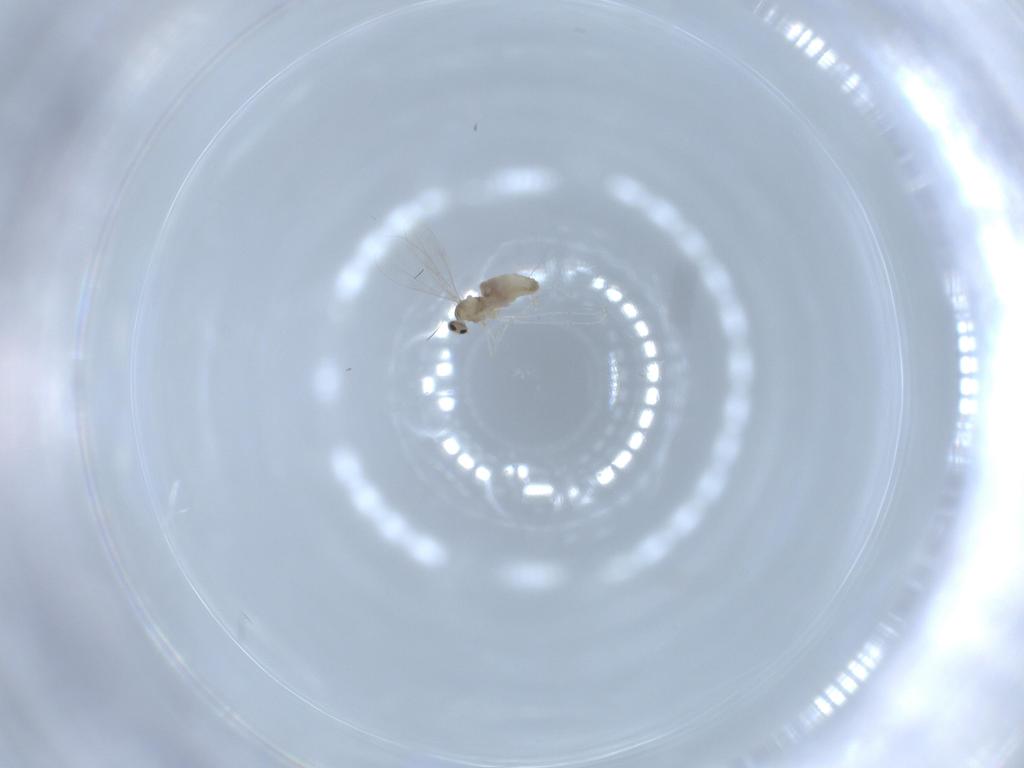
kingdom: Animalia
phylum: Arthropoda
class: Insecta
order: Diptera
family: Cecidomyiidae
